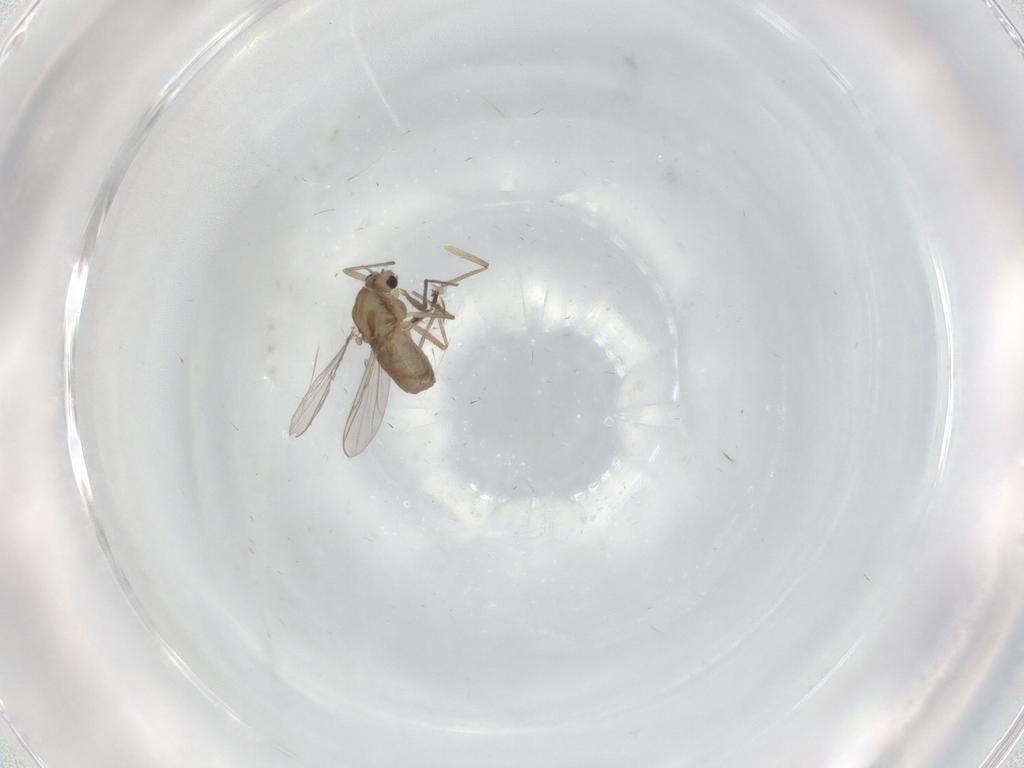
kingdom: Animalia
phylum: Arthropoda
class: Insecta
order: Diptera
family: Chironomidae
